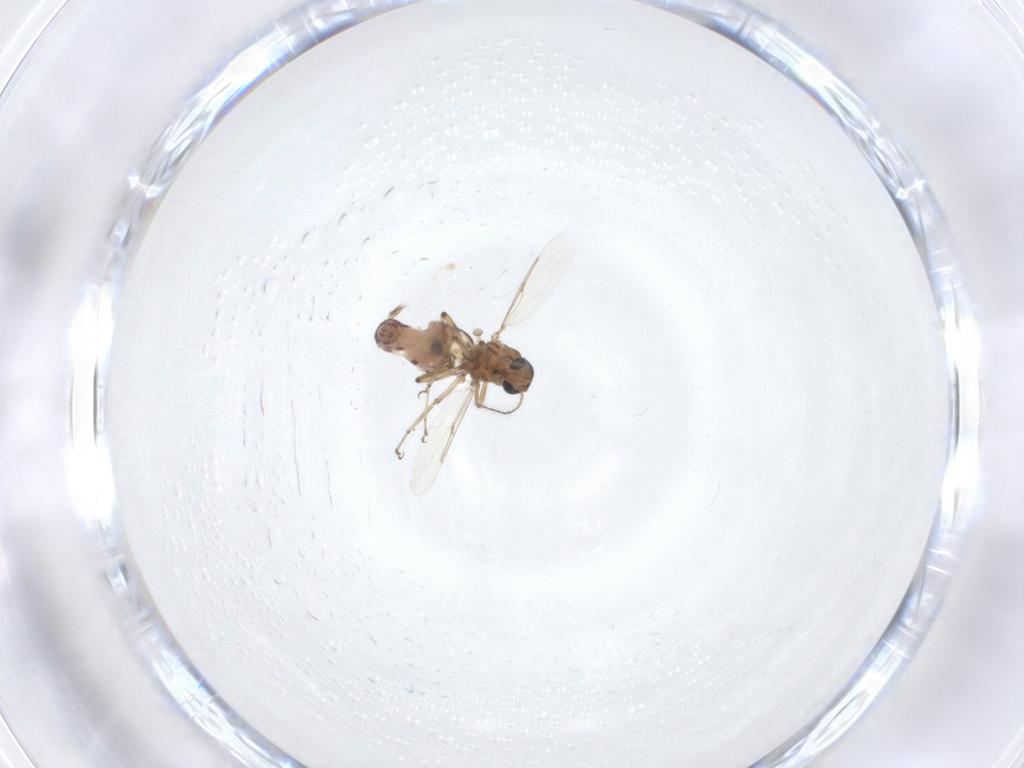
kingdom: Animalia
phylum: Arthropoda
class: Insecta
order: Diptera
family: Ceratopogonidae
